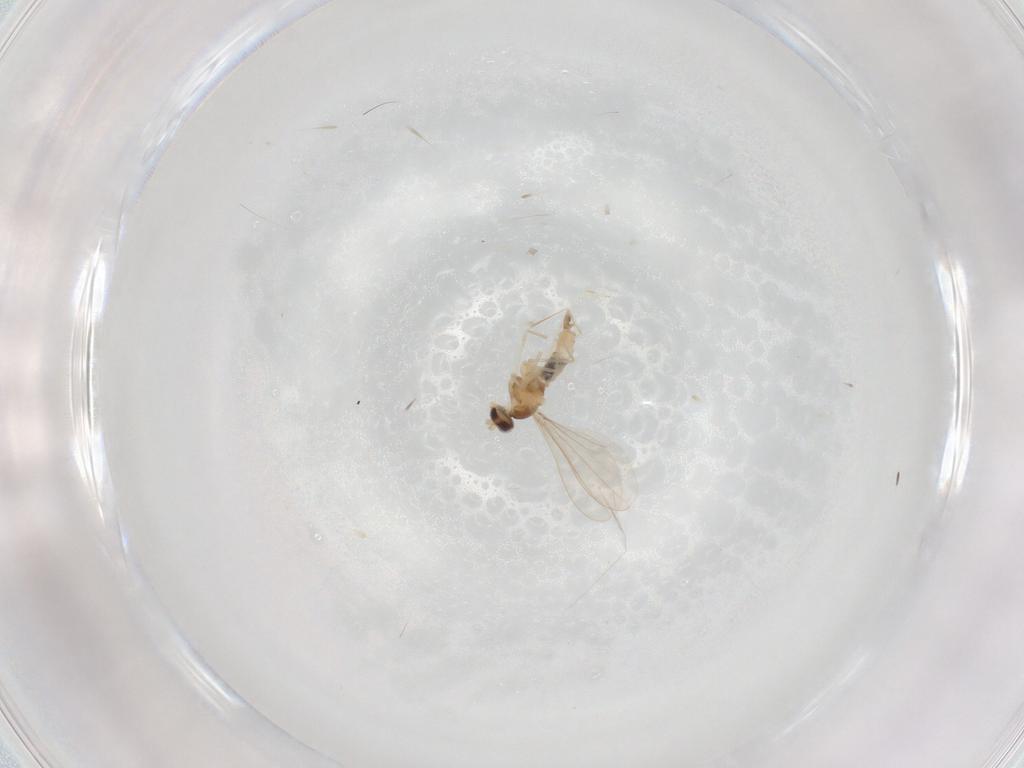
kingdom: Animalia
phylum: Arthropoda
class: Insecta
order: Diptera
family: Cecidomyiidae
